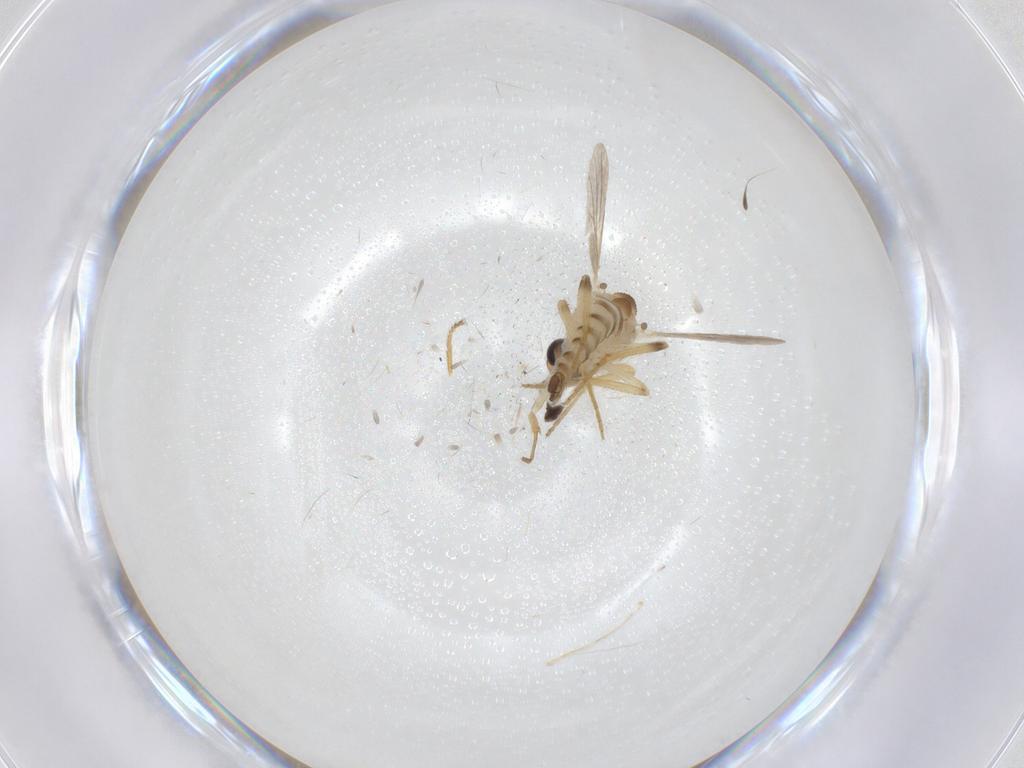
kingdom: Animalia
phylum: Arthropoda
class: Insecta
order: Diptera
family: Ceratopogonidae
